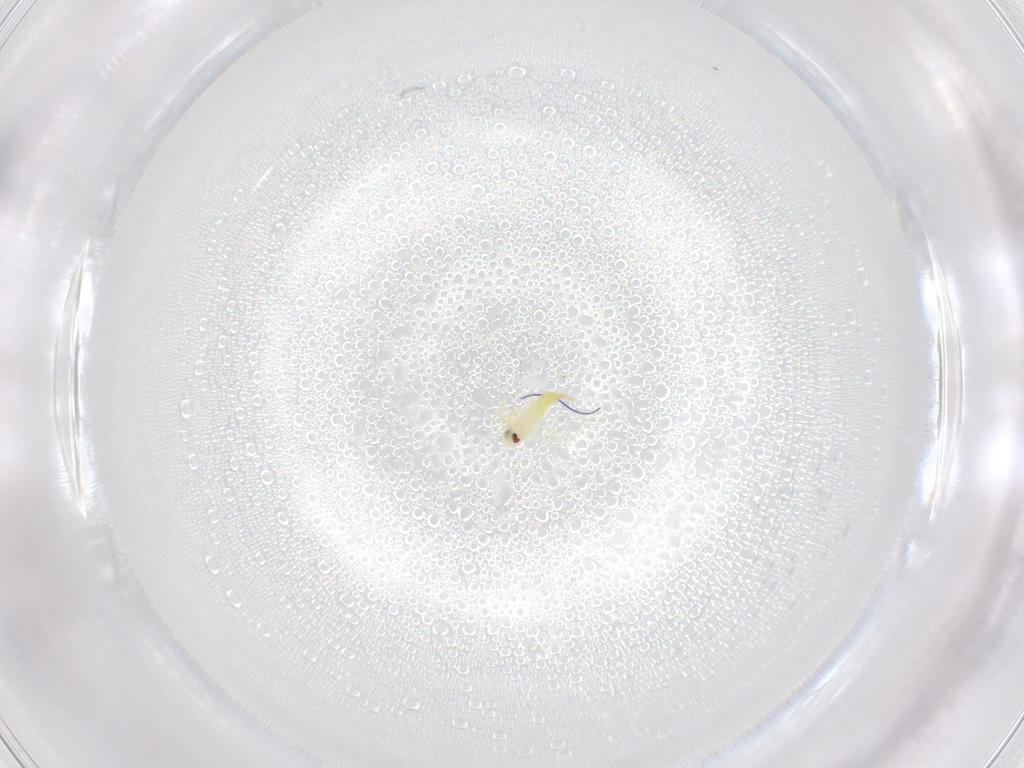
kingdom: Animalia
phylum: Arthropoda
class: Insecta
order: Hemiptera
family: Aleyrodidae
